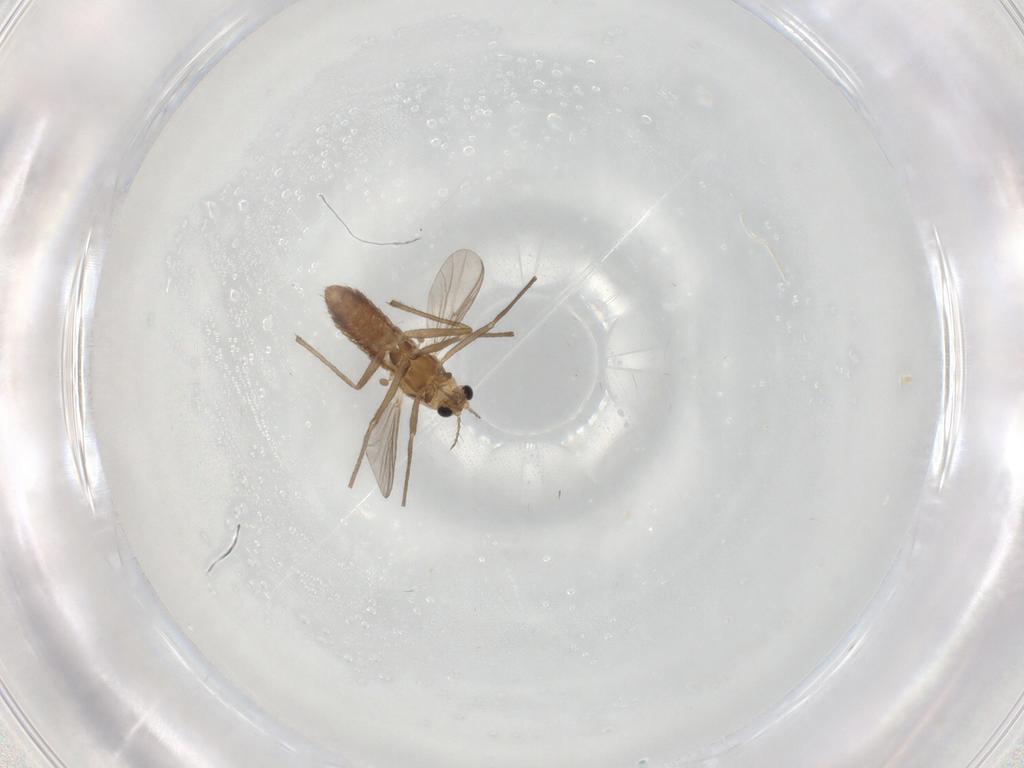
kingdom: Animalia
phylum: Arthropoda
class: Insecta
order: Diptera
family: Chironomidae
